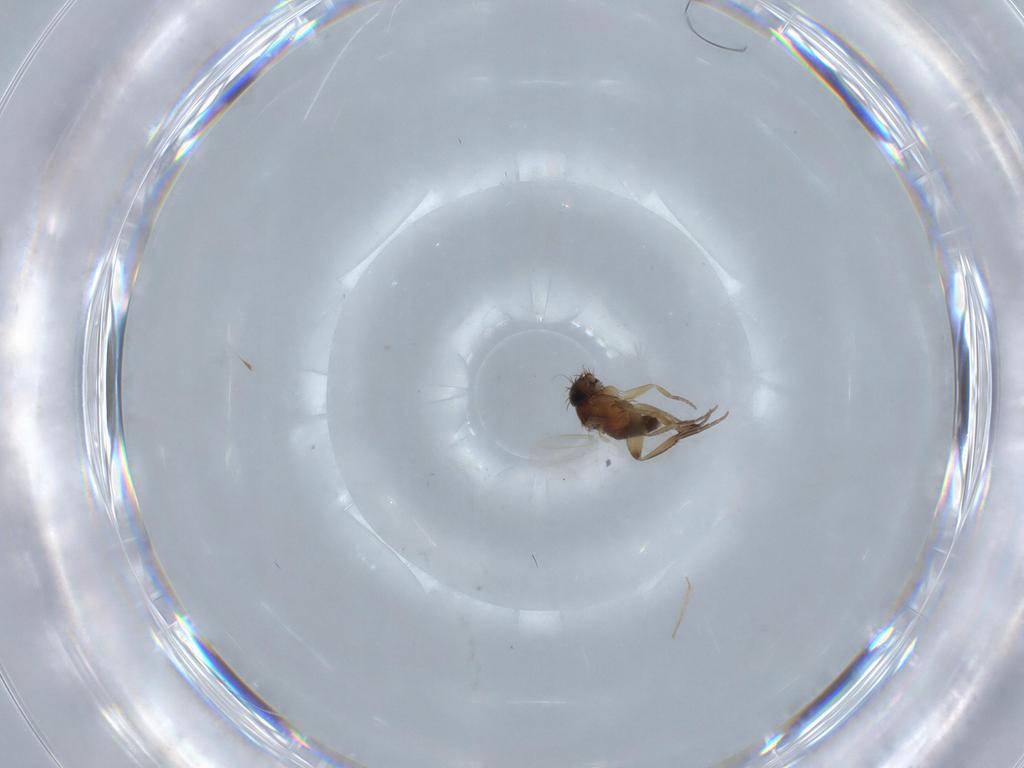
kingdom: Animalia
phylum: Arthropoda
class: Insecta
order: Diptera
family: Phoridae
